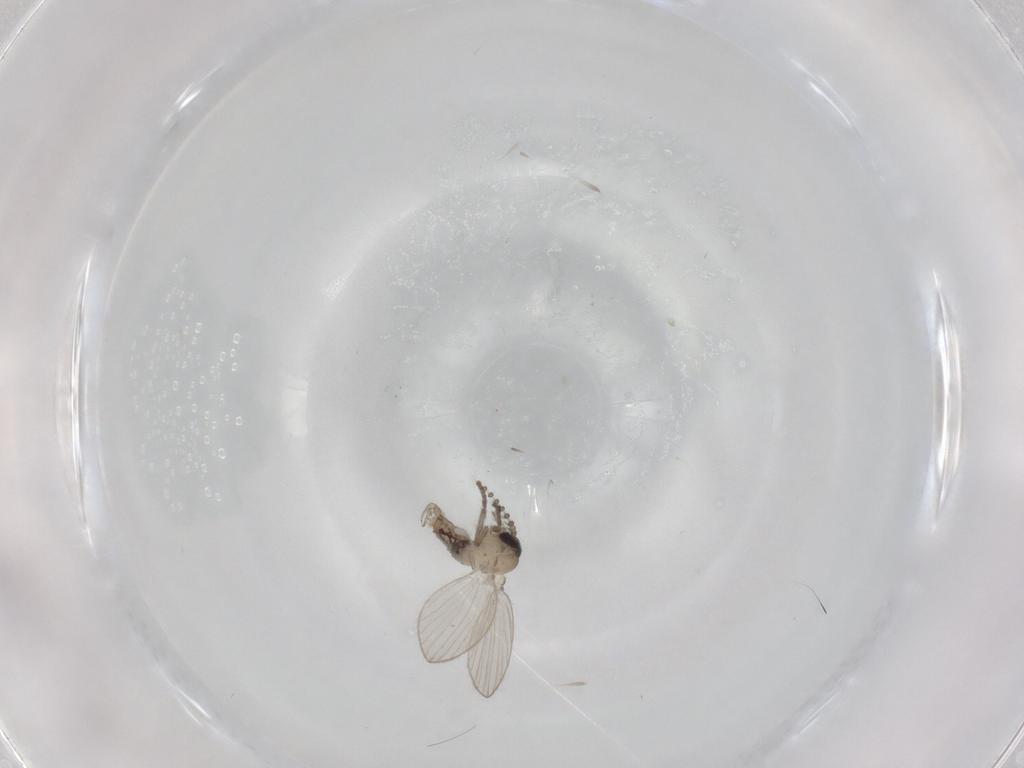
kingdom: Animalia
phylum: Arthropoda
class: Insecta
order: Diptera
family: Psychodidae
